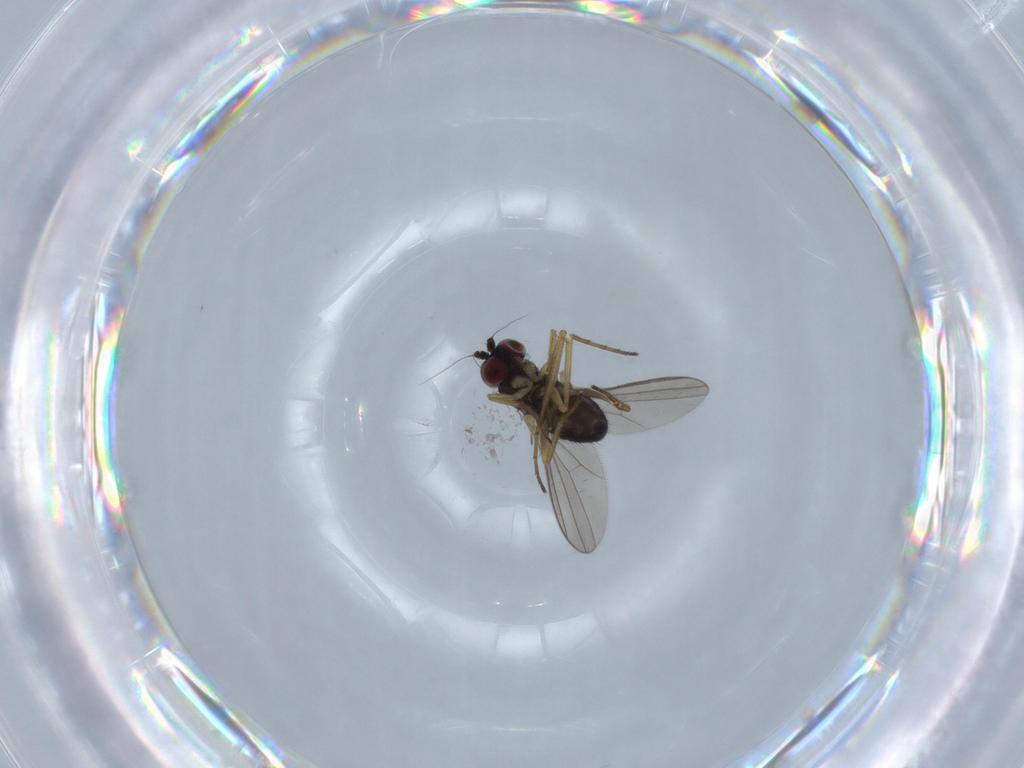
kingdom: Animalia
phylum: Arthropoda
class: Insecta
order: Diptera
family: Dolichopodidae
